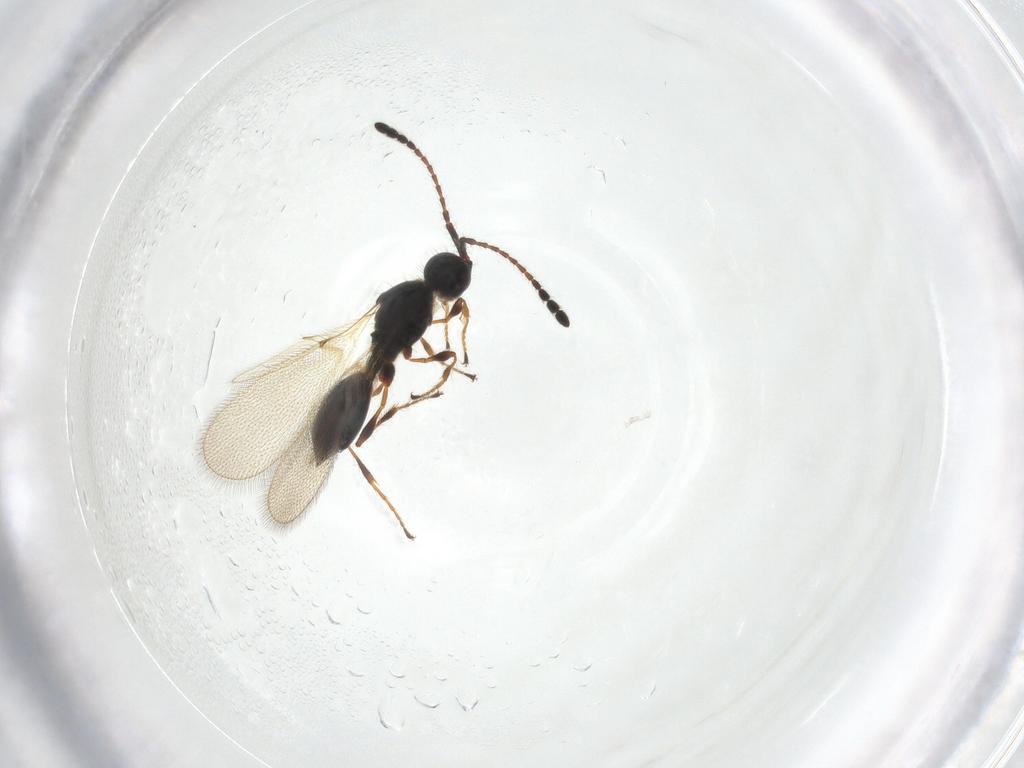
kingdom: Animalia
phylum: Arthropoda
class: Insecta
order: Hymenoptera
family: Diapriidae
